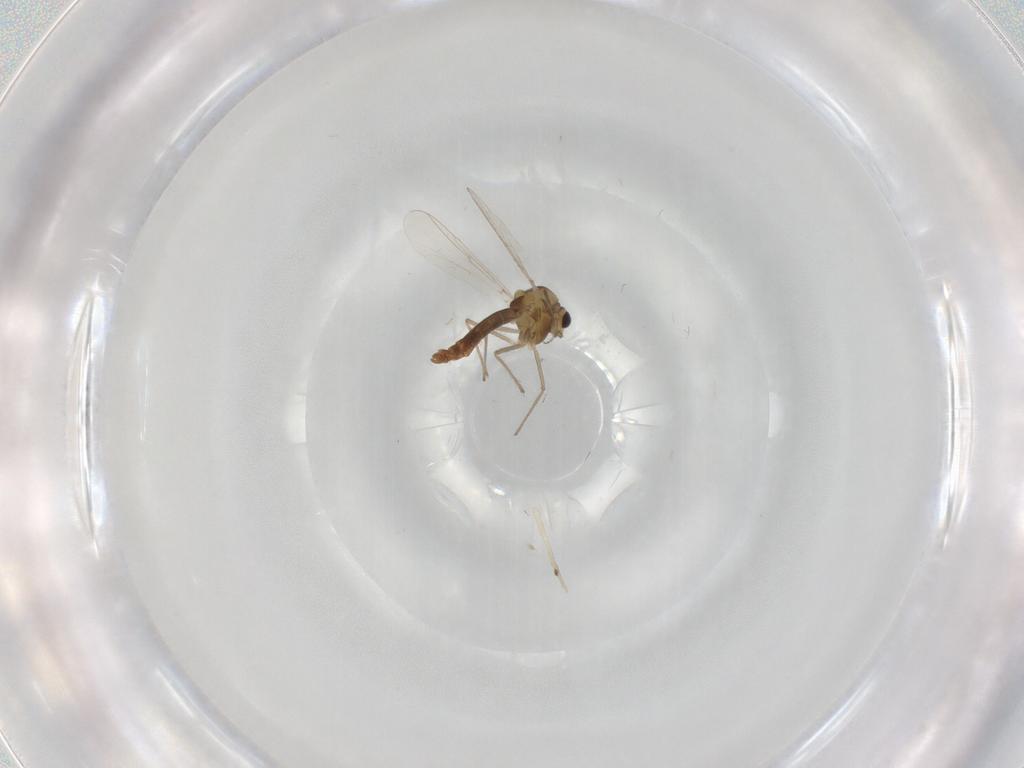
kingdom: Animalia
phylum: Arthropoda
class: Insecta
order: Diptera
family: Chironomidae
